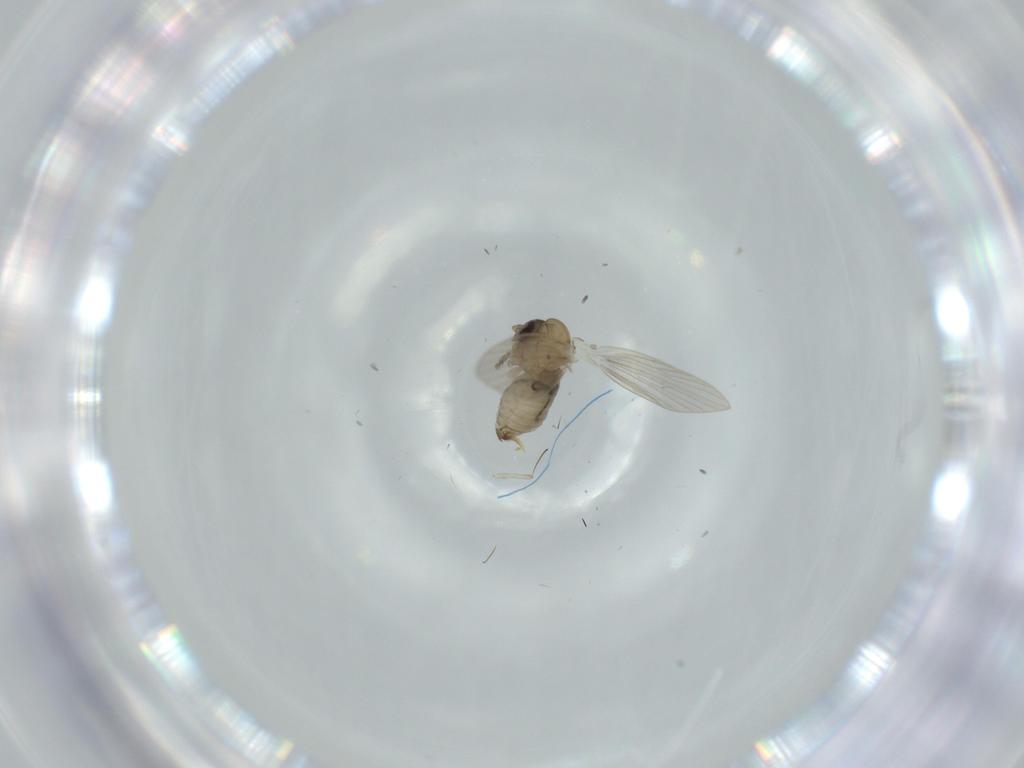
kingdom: Animalia
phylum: Arthropoda
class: Insecta
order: Diptera
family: Psychodidae
